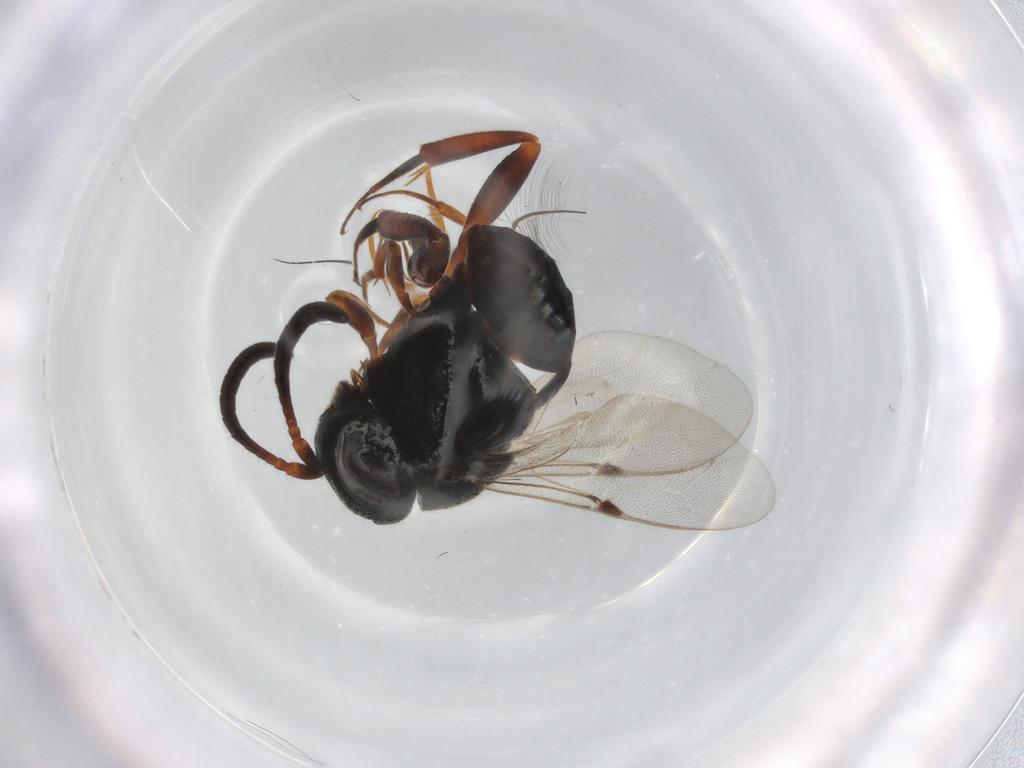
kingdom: Animalia
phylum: Arthropoda
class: Insecta
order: Hymenoptera
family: Evaniidae
